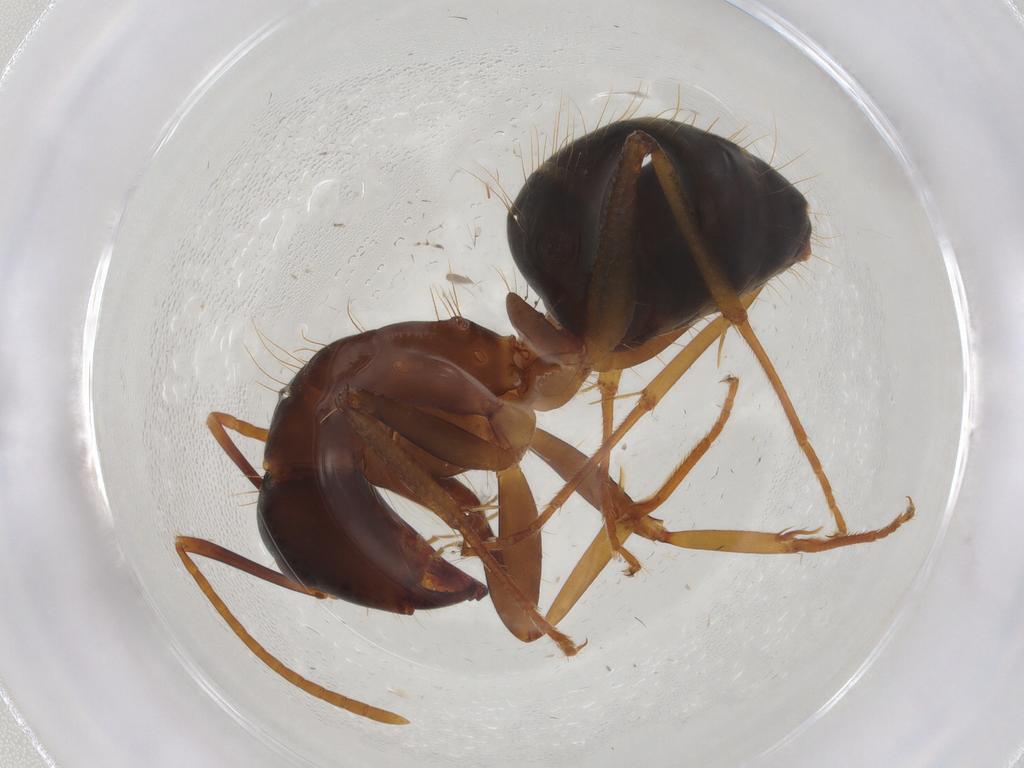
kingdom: Animalia
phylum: Arthropoda
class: Insecta
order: Hymenoptera
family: Formicidae
